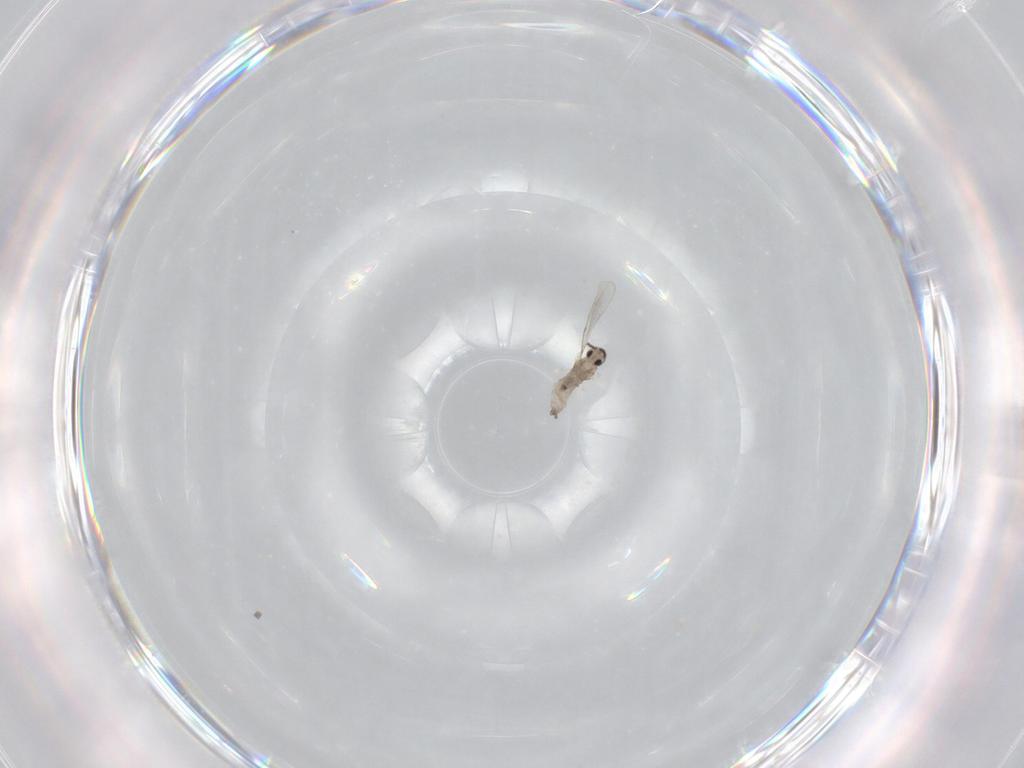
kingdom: Animalia
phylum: Arthropoda
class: Insecta
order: Diptera
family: Cecidomyiidae
